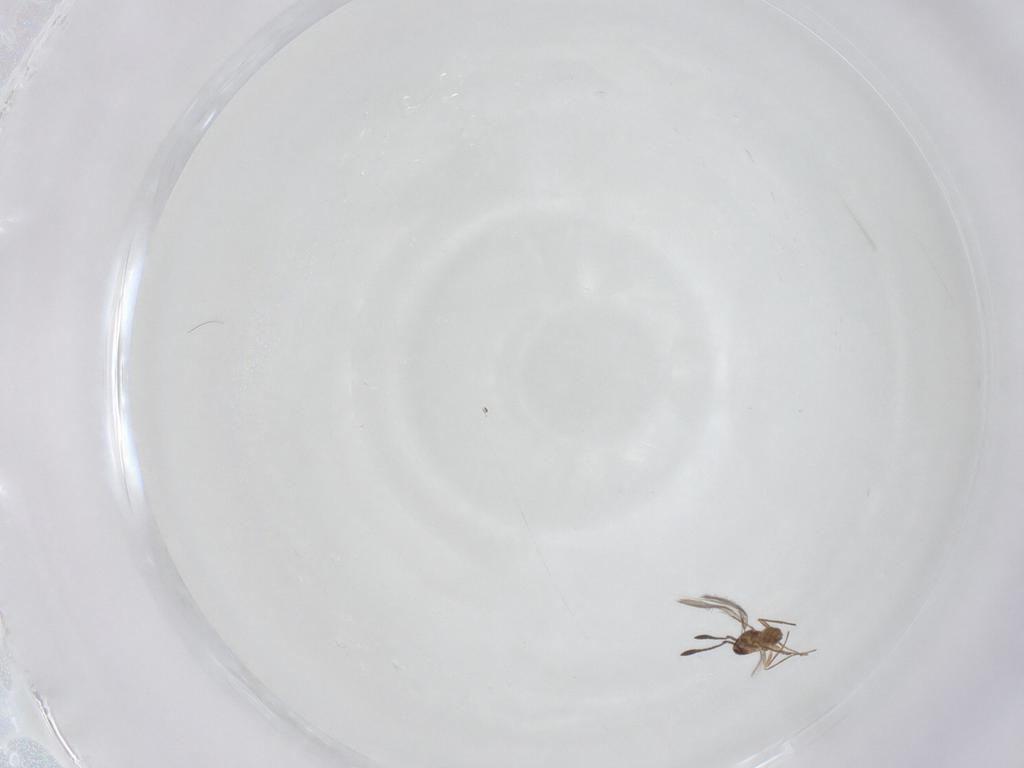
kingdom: Animalia
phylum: Arthropoda
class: Insecta
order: Hymenoptera
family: Mymaridae
